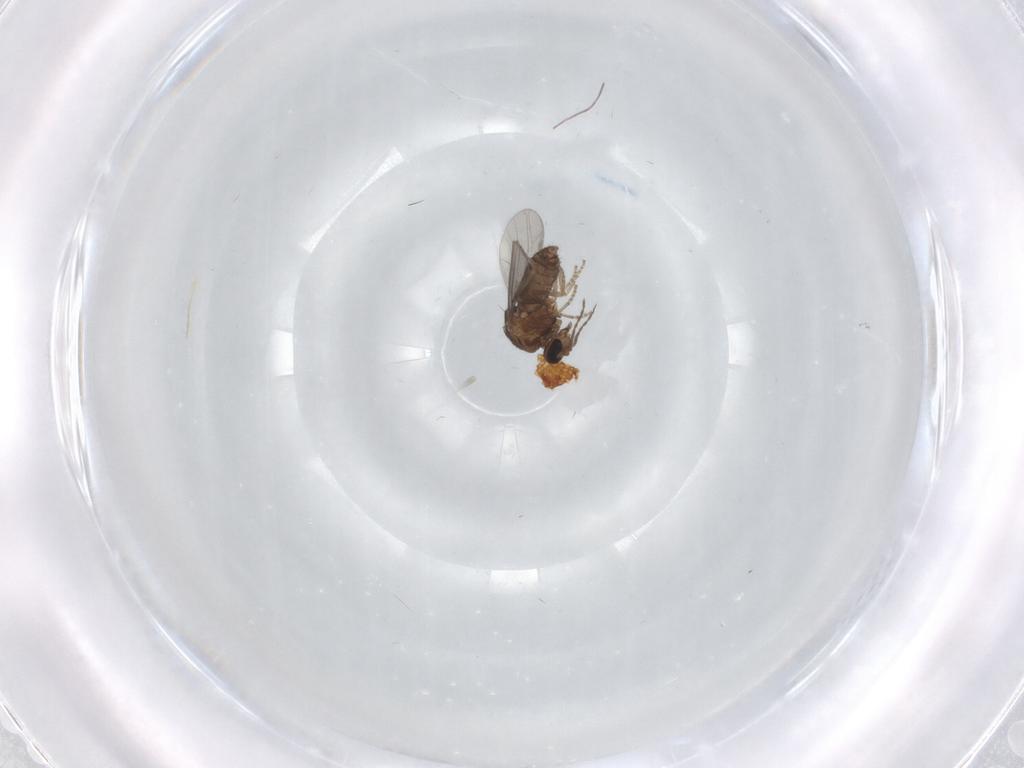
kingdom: Animalia
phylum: Arthropoda
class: Insecta
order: Diptera
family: Ceratopogonidae
